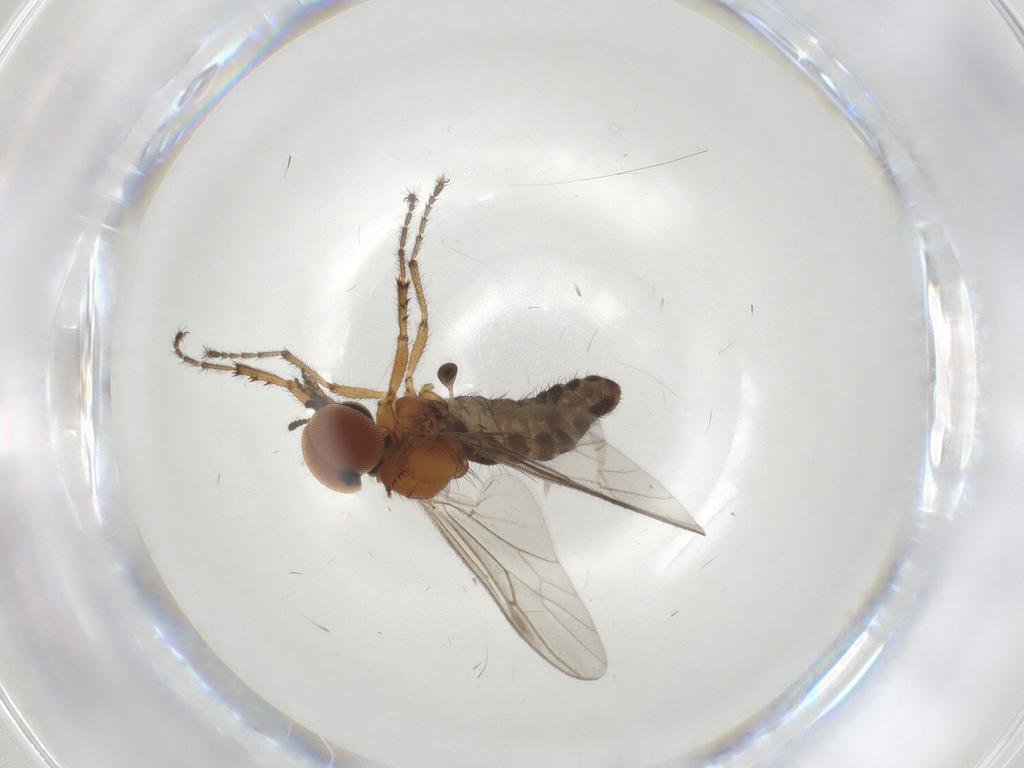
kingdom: Animalia
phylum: Arthropoda
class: Insecta
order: Diptera
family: Bibionidae
